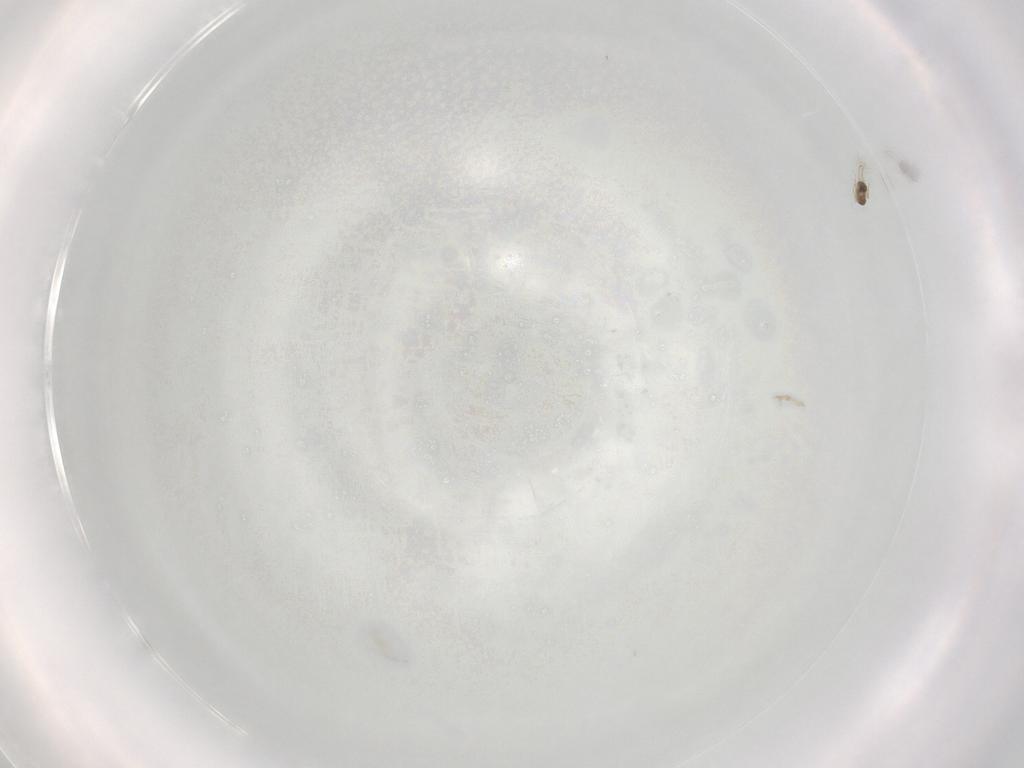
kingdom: Animalia
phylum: Arthropoda
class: Insecta
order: Hymenoptera
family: Braconidae
